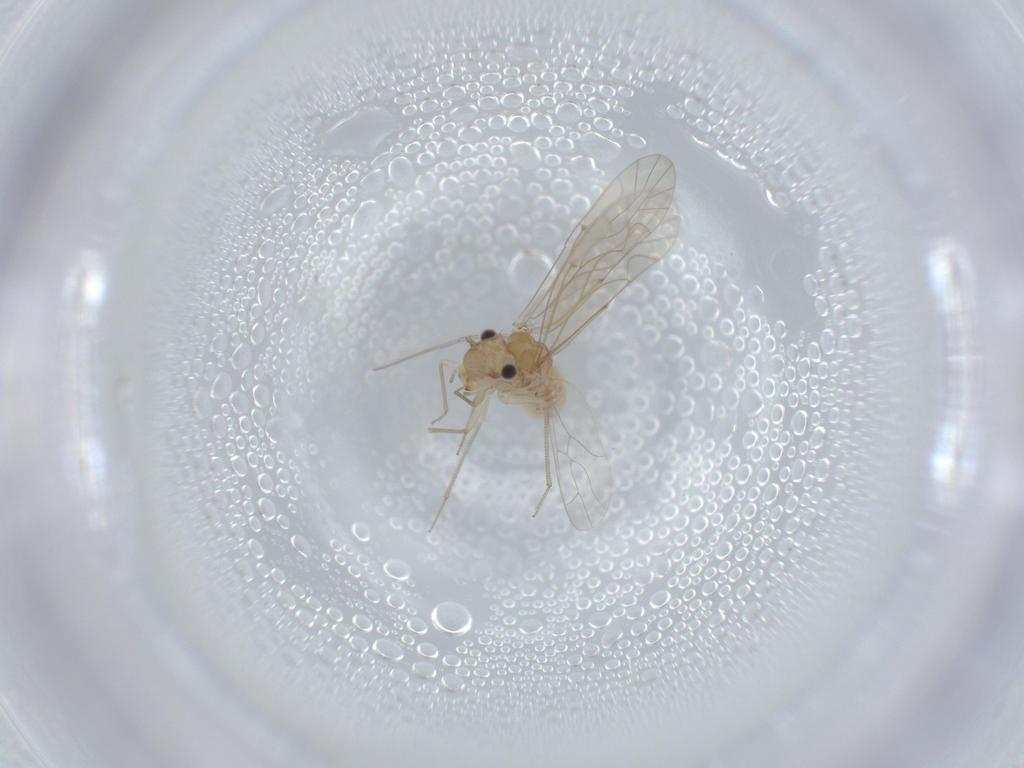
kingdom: Animalia
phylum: Arthropoda
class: Insecta
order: Psocodea
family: Lachesillidae
